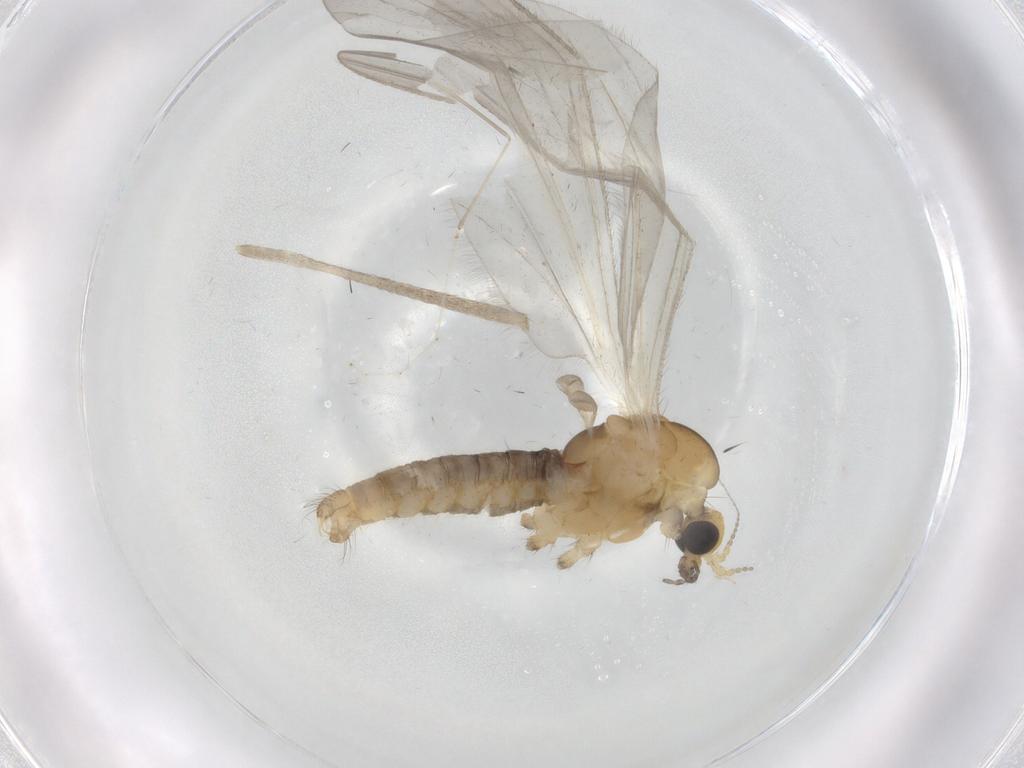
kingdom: Animalia
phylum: Arthropoda
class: Insecta
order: Diptera
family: Limoniidae
